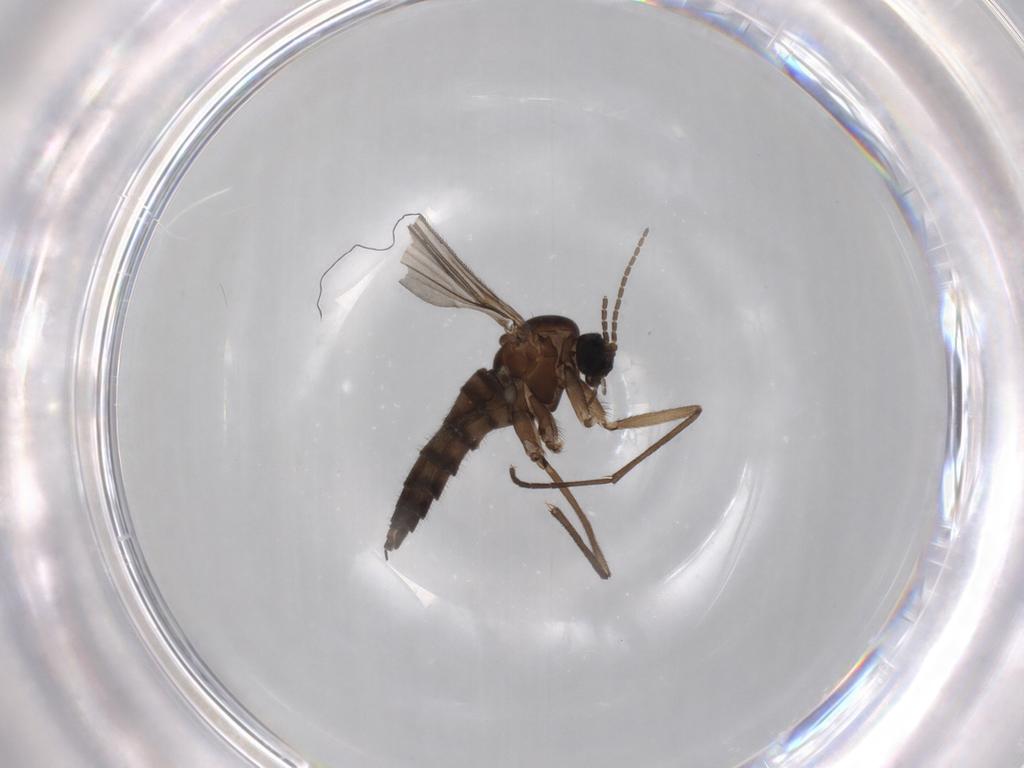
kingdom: Animalia
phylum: Arthropoda
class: Insecta
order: Diptera
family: Sciaridae
